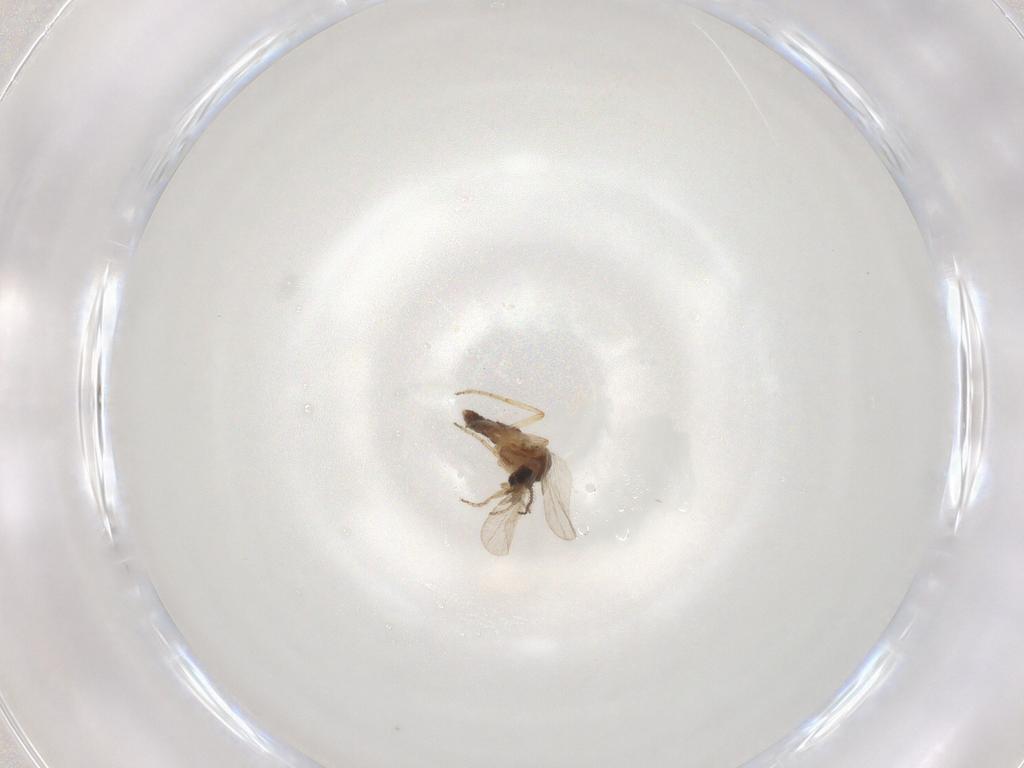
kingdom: Animalia
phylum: Arthropoda
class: Insecta
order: Diptera
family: Ceratopogonidae
